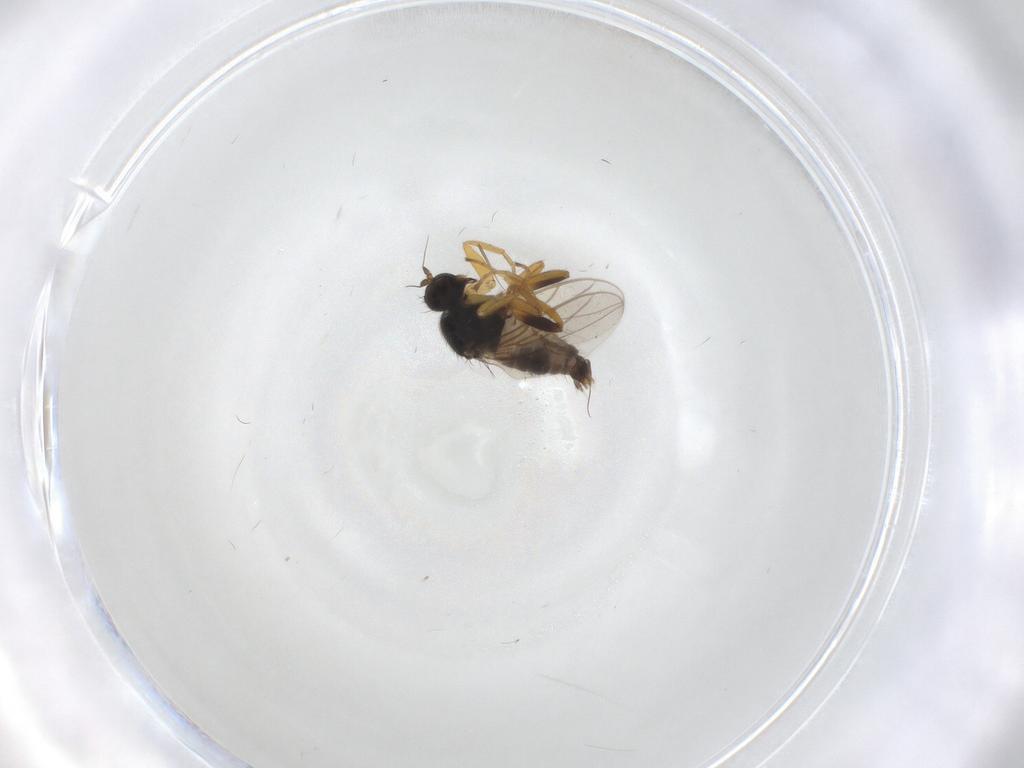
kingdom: Animalia
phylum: Arthropoda
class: Insecta
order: Diptera
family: Hybotidae
